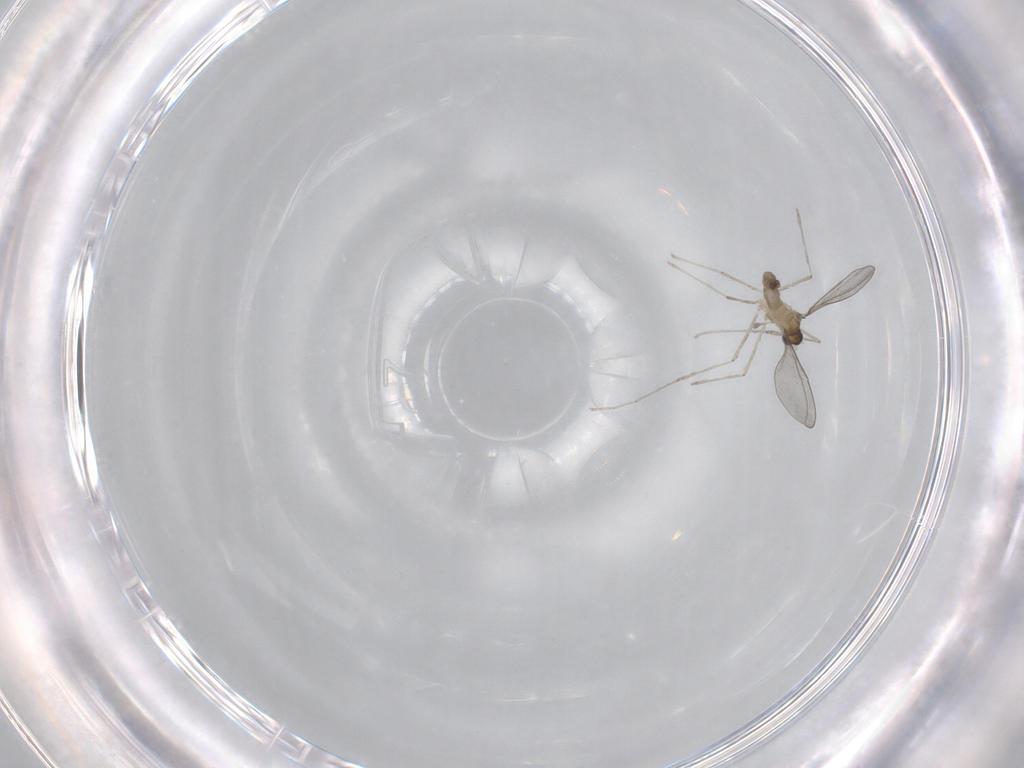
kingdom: Animalia
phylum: Arthropoda
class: Insecta
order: Diptera
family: Cecidomyiidae
